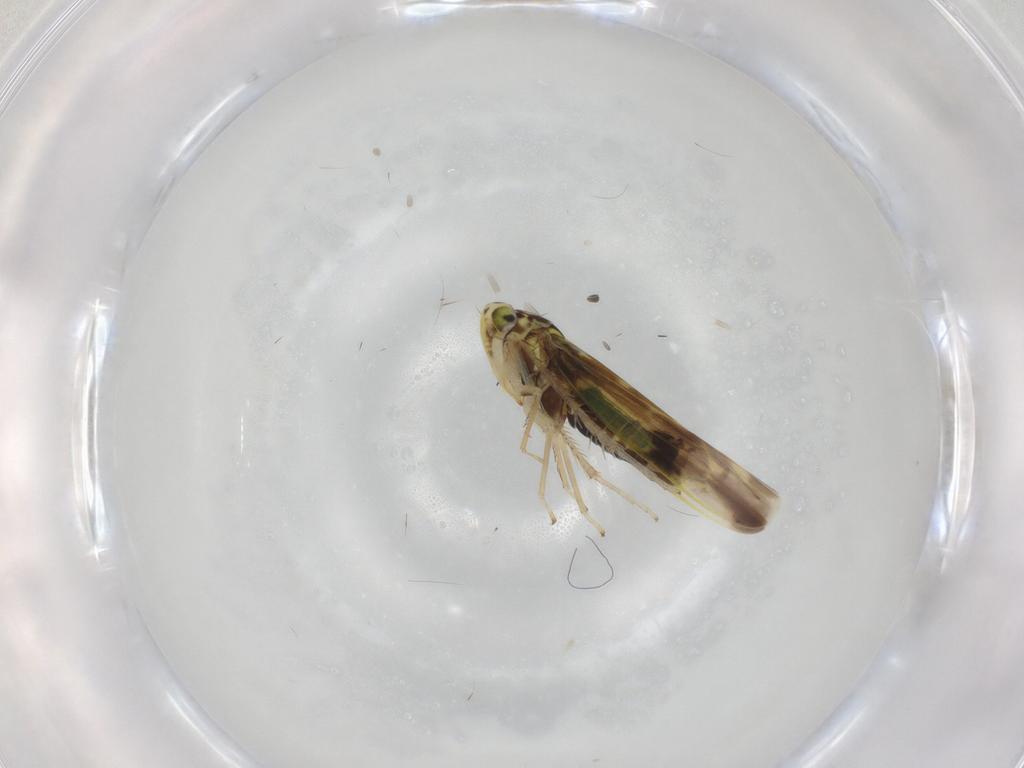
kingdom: Animalia
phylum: Arthropoda
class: Insecta
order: Hemiptera
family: Cicadellidae
